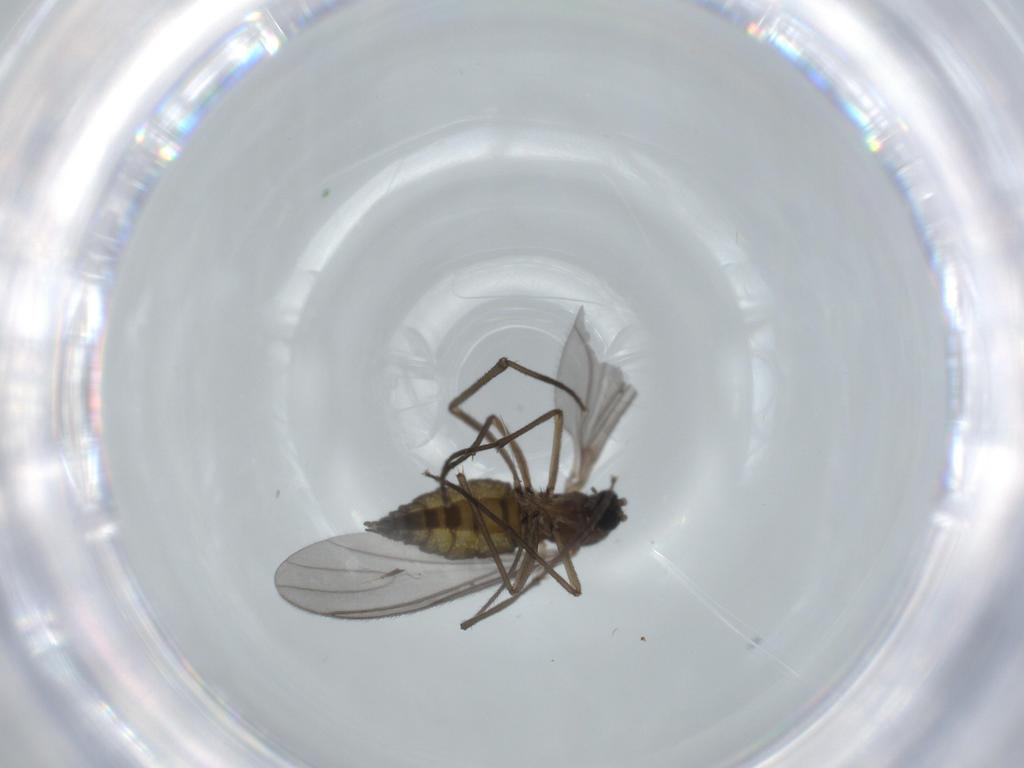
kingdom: Animalia
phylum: Arthropoda
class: Insecta
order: Diptera
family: Sciaridae
